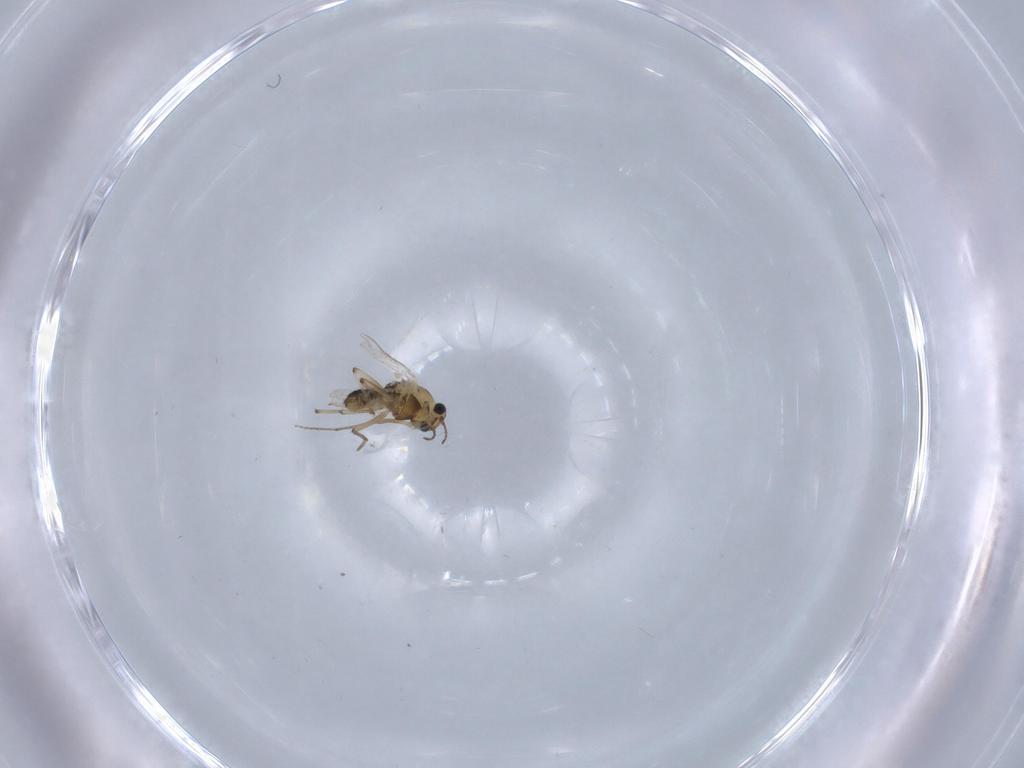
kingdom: Animalia
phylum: Arthropoda
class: Insecta
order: Diptera
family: Chironomidae
